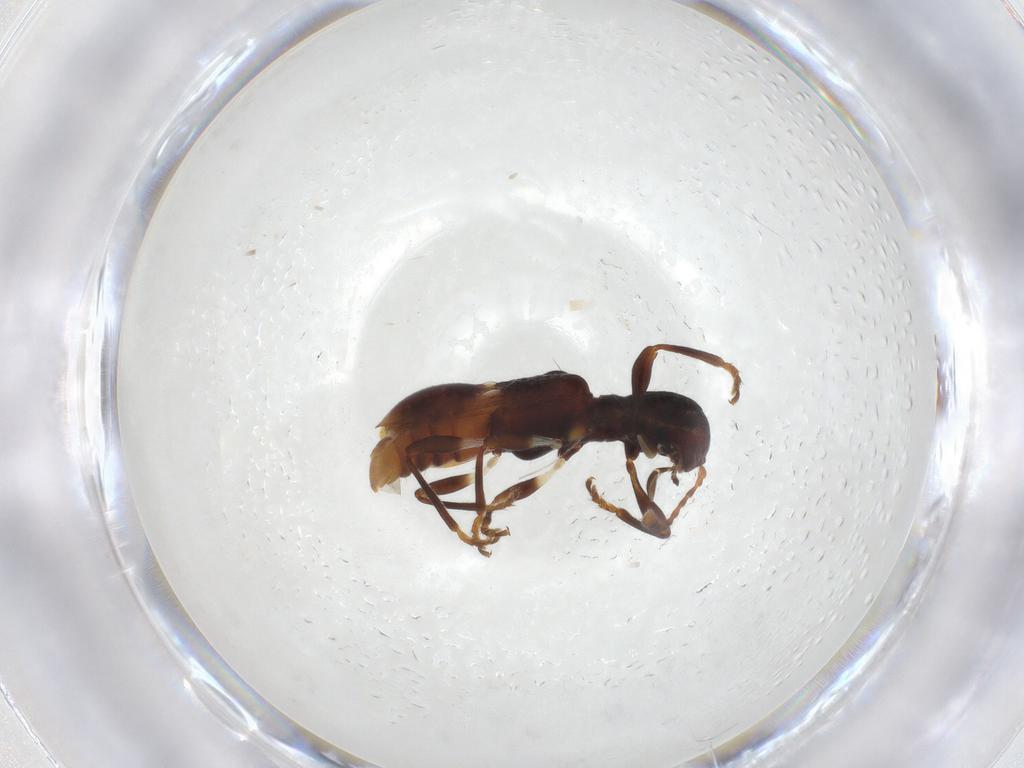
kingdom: Animalia
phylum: Arthropoda
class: Insecta
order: Coleoptera
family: Cleridae
